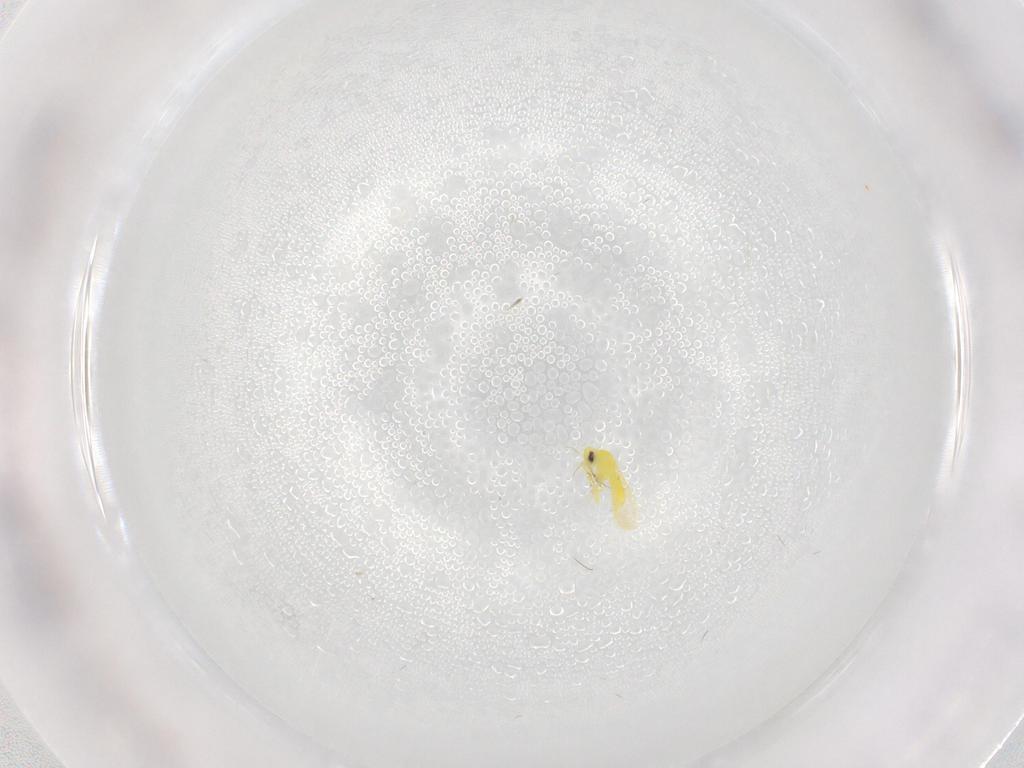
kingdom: Animalia
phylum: Arthropoda
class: Insecta
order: Hemiptera
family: Aleyrodidae
